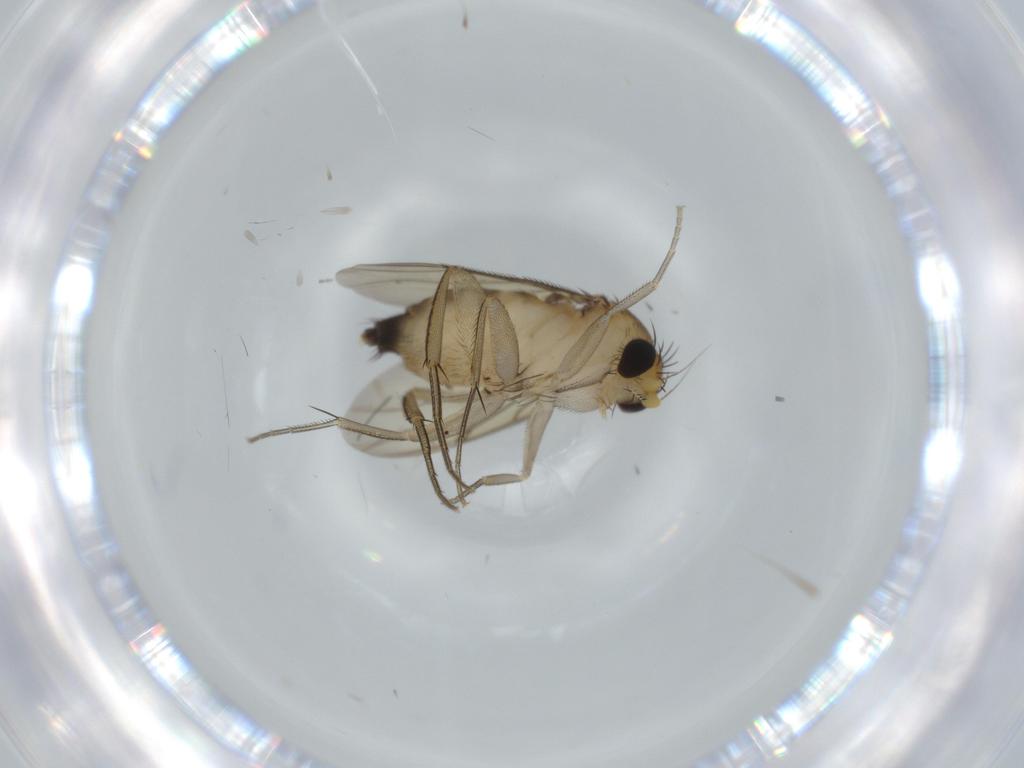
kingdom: Animalia
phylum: Arthropoda
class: Insecta
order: Diptera
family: Phoridae
